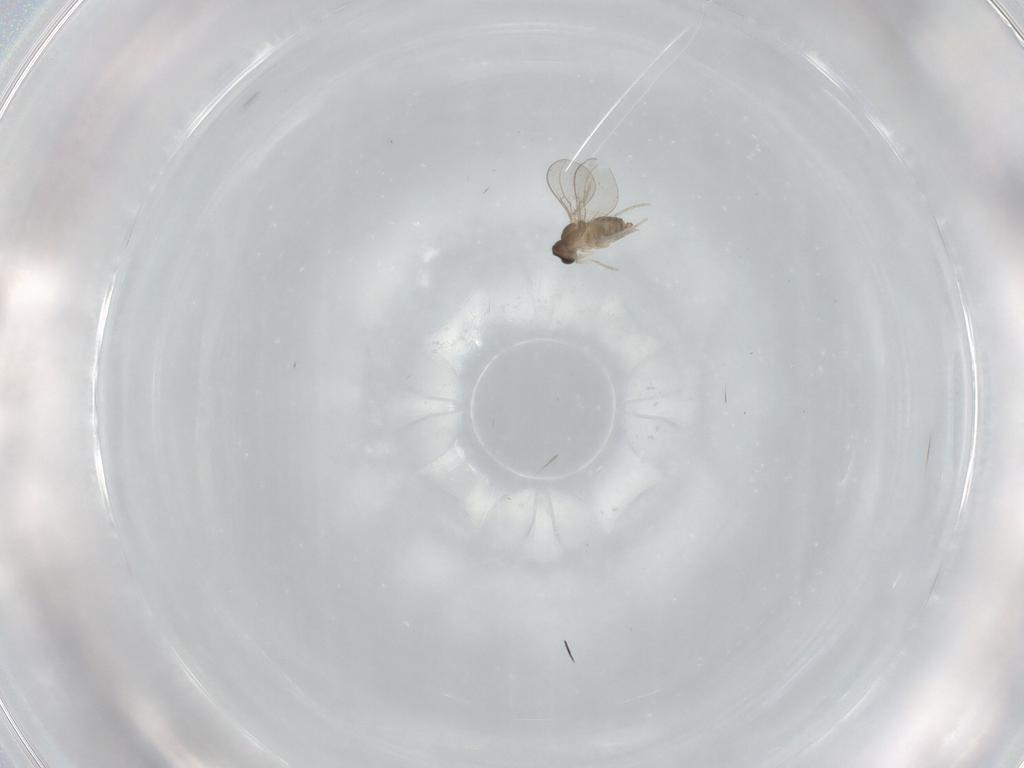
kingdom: Animalia
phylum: Arthropoda
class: Insecta
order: Diptera
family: Cecidomyiidae
